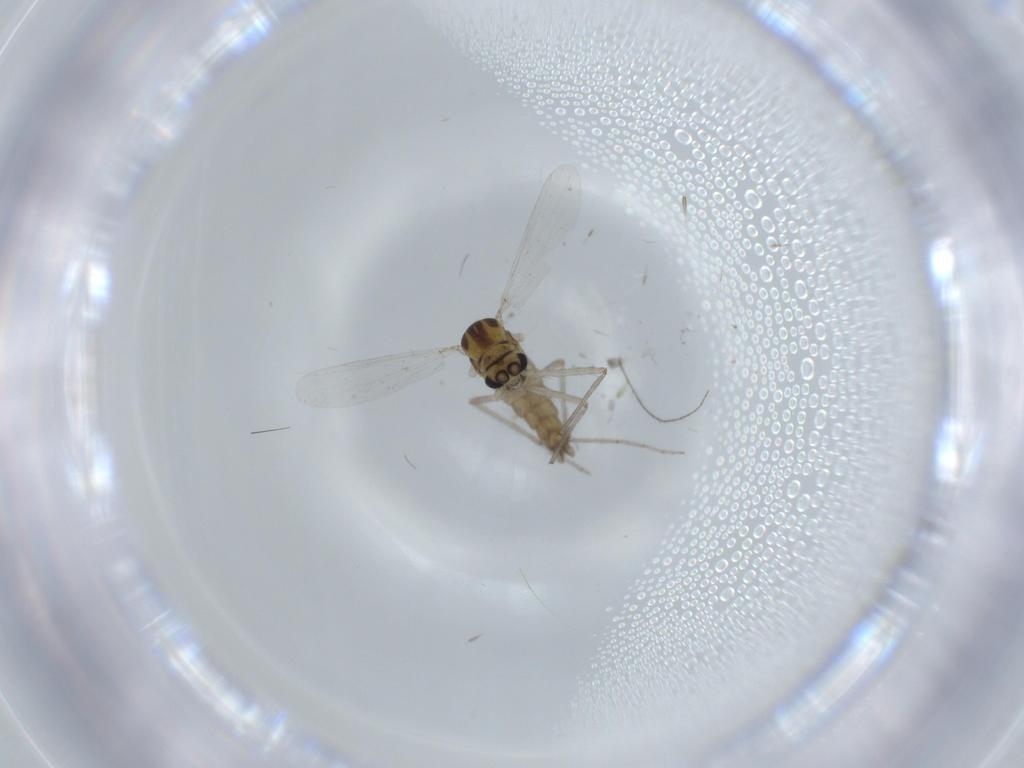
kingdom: Animalia
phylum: Arthropoda
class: Insecta
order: Diptera
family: Chironomidae
